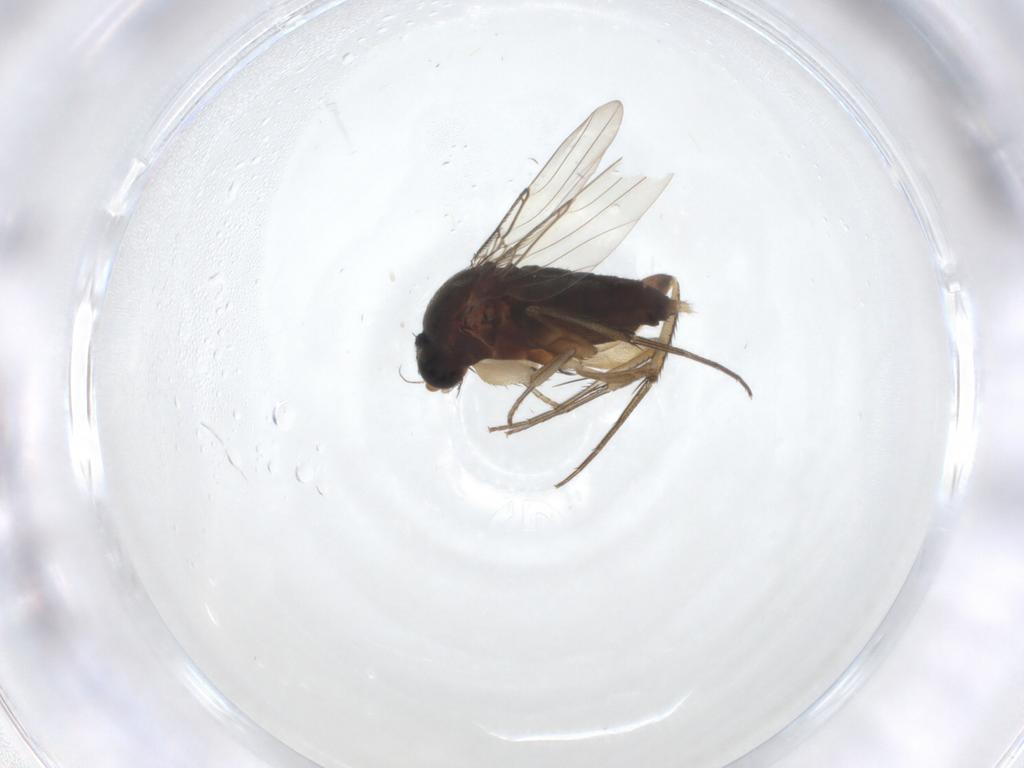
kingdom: Animalia
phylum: Arthropoda
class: Insecta
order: Diptera
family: Phoridae
